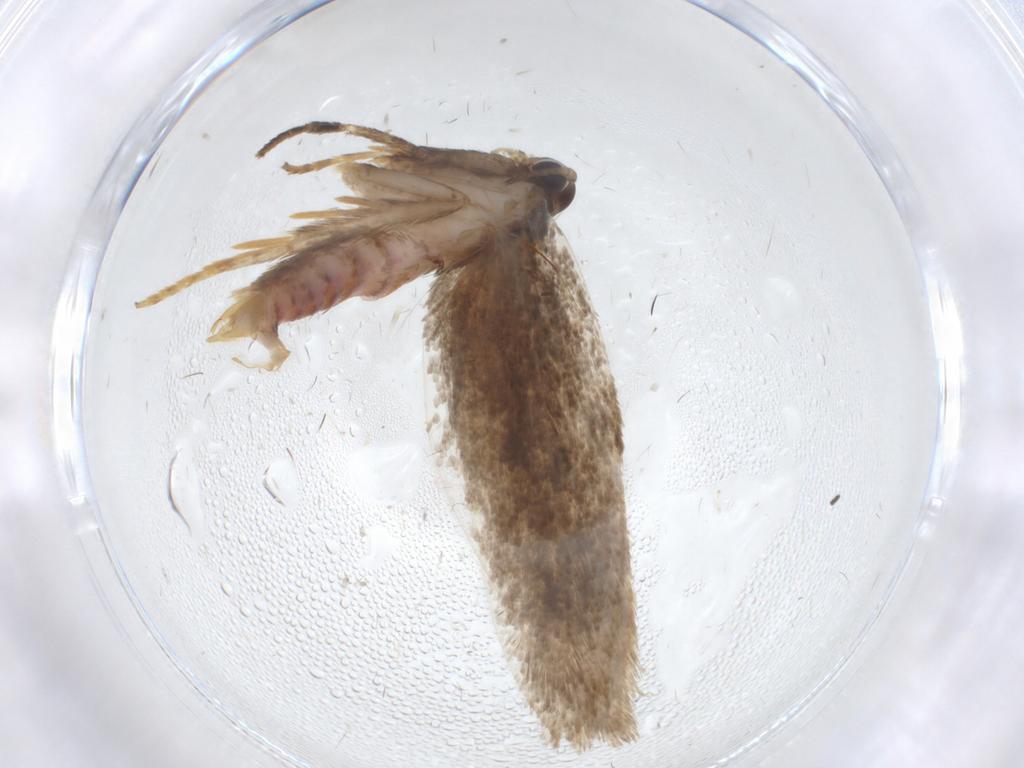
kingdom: Animalia
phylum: Arthropoda
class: Insecta
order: Lepidoptera
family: Oecophoridae
